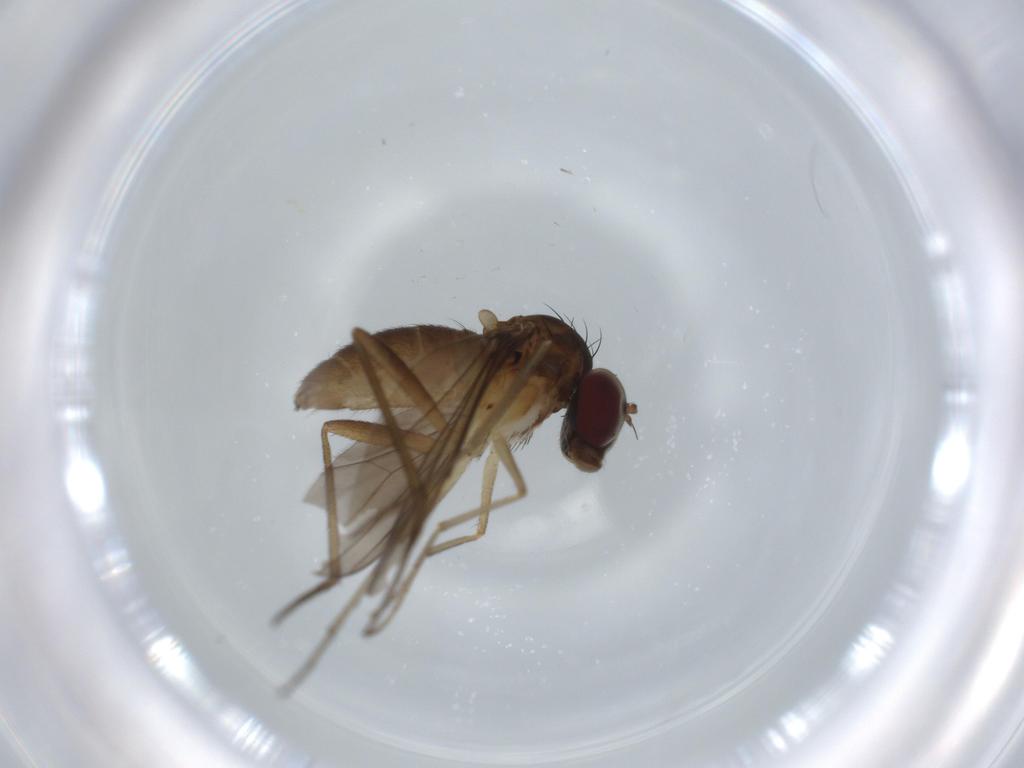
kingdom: Animalia
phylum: Arthropoda
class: Insecta
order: Diptera
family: Dolichopodidae
